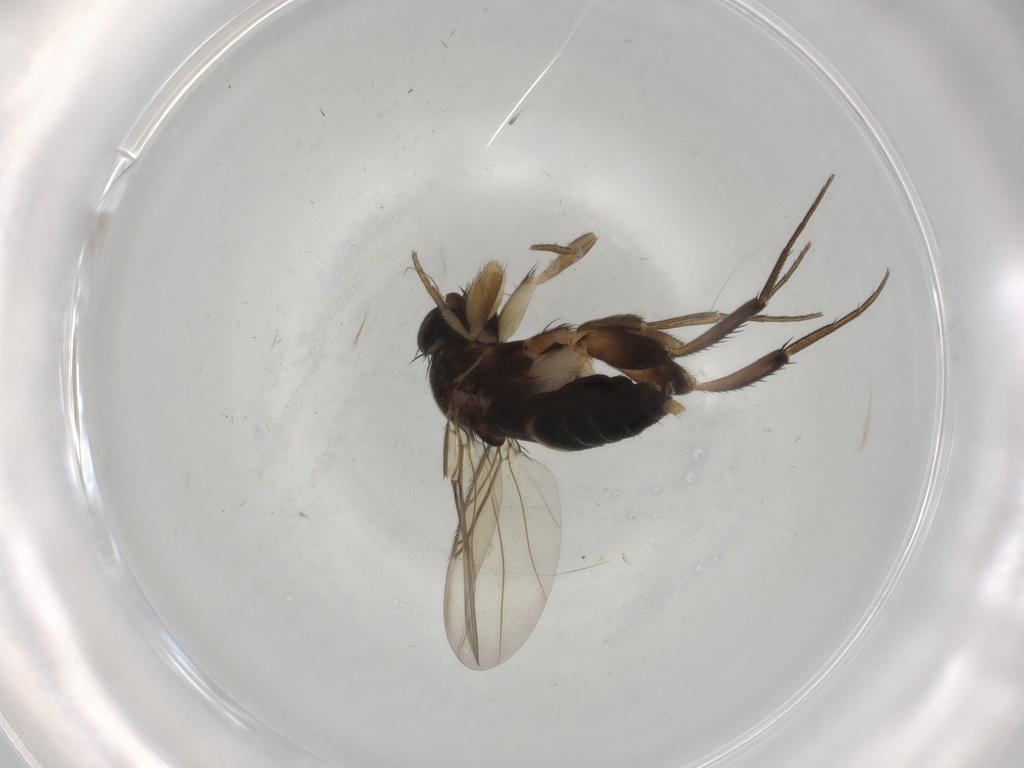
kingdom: Animalia
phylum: Arthropoda
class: Insecta
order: Diptera
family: Phoridae
